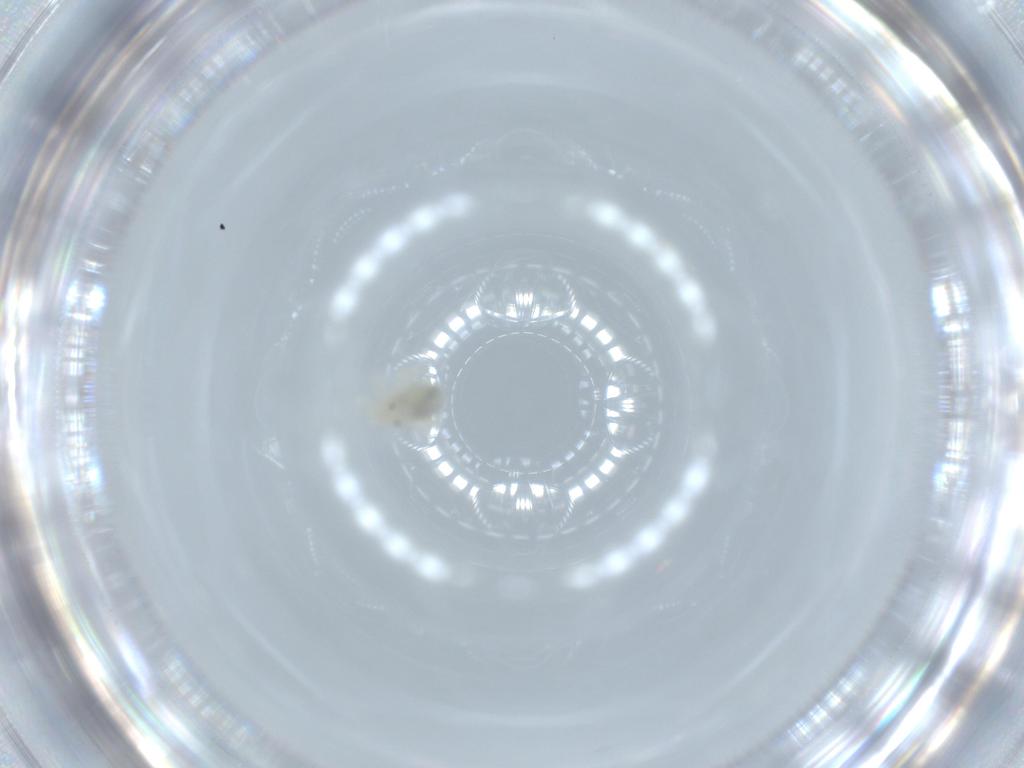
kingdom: Animalia
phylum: Arthropoda
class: Arachnida
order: Trombidiformes
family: Anystidae
